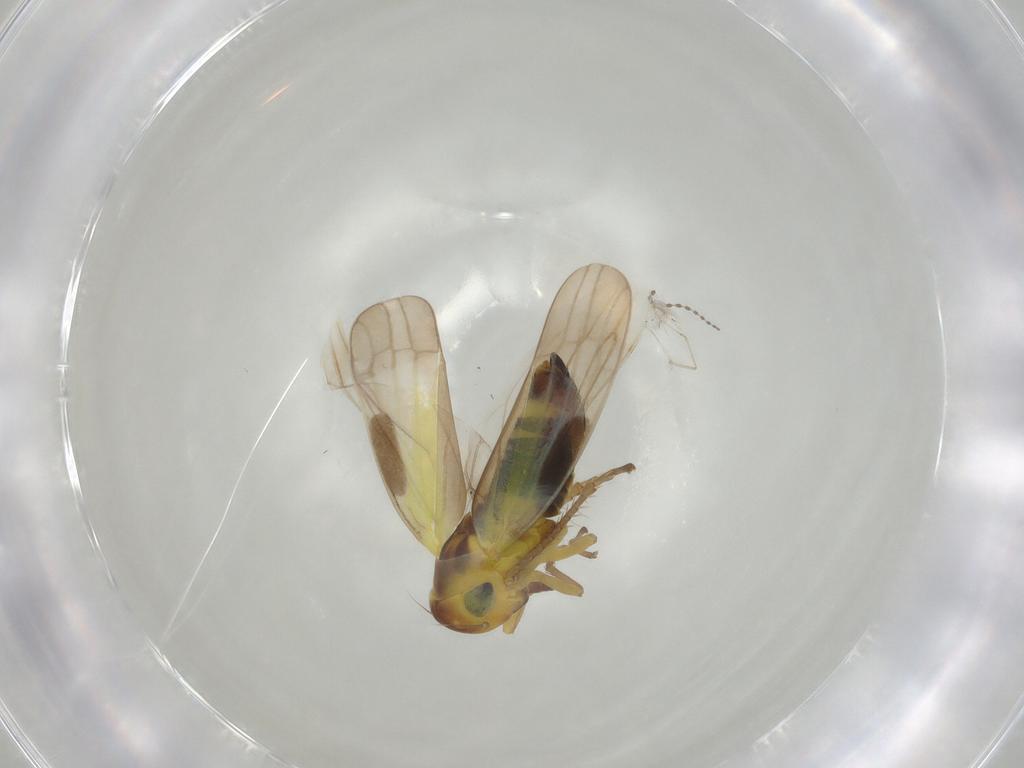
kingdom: Animalia
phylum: Arthropoda
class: Insecta
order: Hemiptera
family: Cicadellidae
